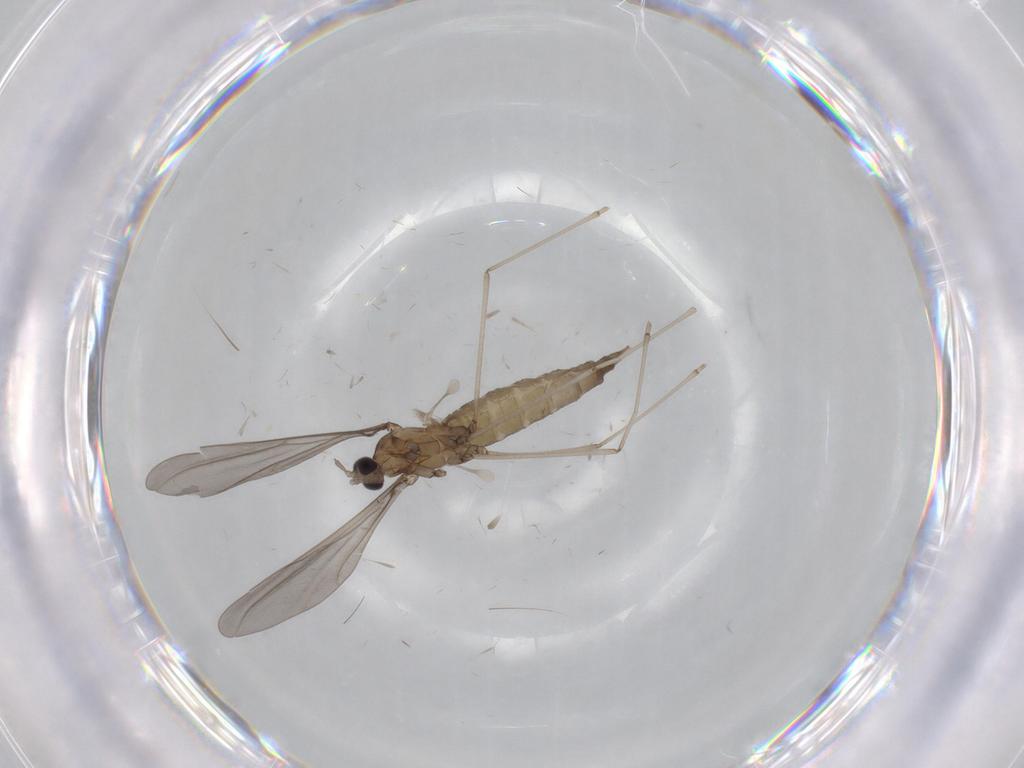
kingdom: Animalia
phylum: Arthropoda
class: Insecta
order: Diptera
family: Cecidomyiidae
